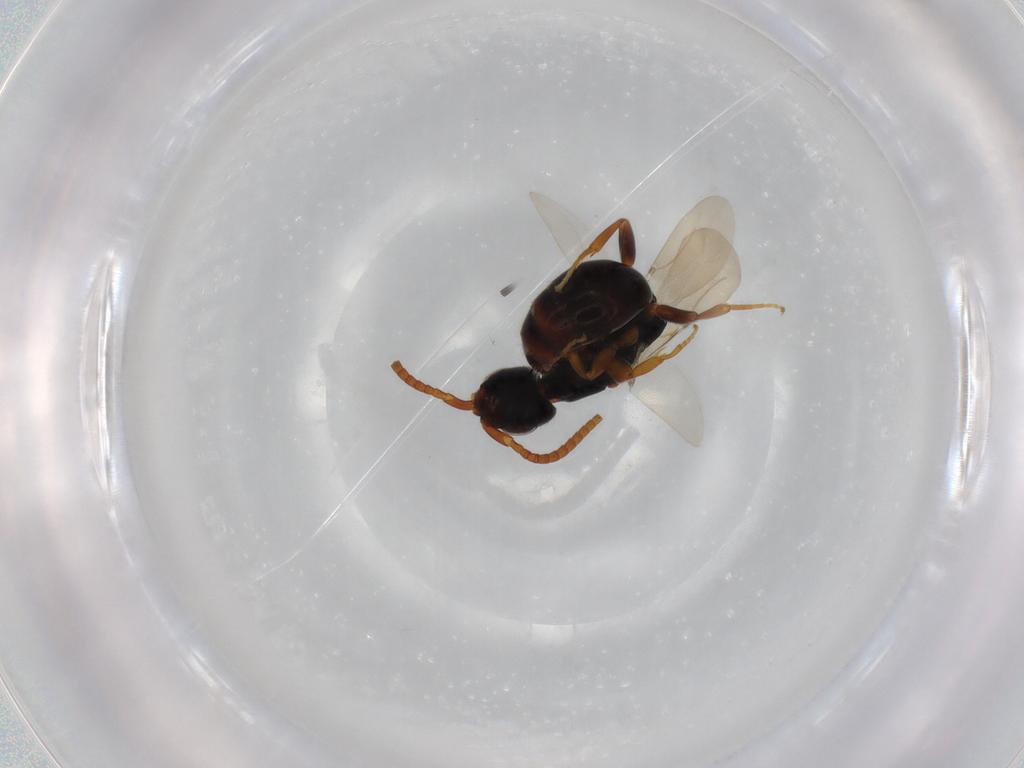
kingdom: Animalia
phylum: Arthropoda
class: Insecta
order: Hymenoptera
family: Bethylidae
